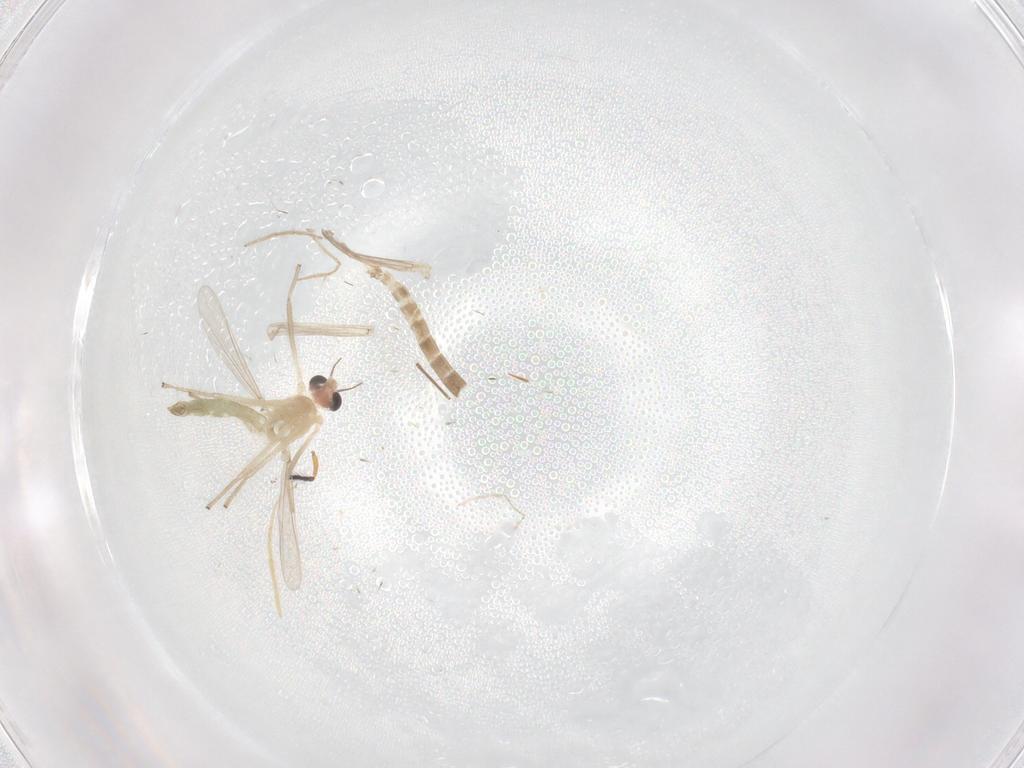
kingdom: Animalia
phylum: Arthropoda
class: Insecta
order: Diptera
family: Chironomidae
